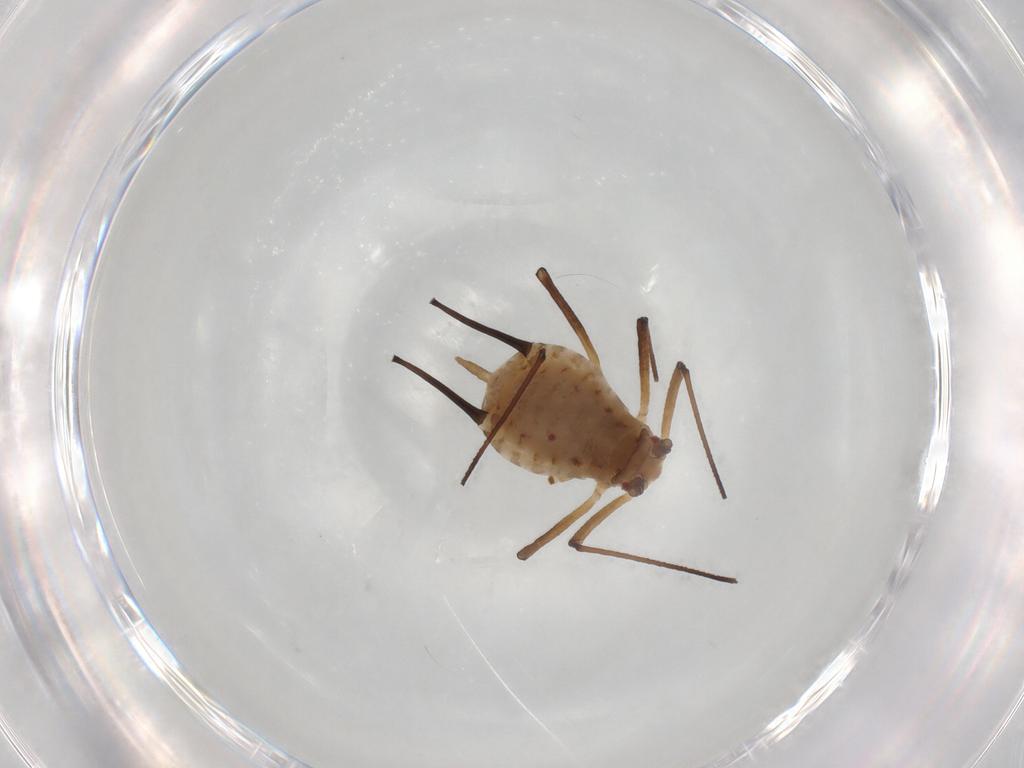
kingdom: Animalia
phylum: Arthropoda
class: Insecta
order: Hemiptera
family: Aphididae
